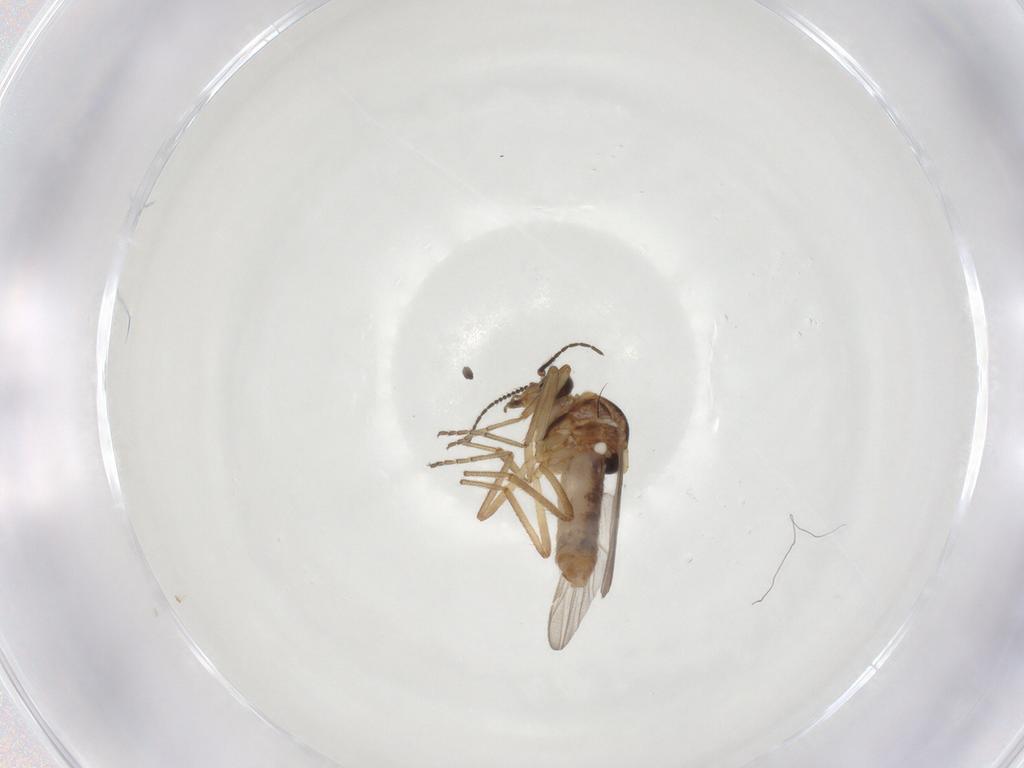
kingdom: Animalia
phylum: Arthropoda
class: Insecta
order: Diptera
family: Ceratopogonidae
